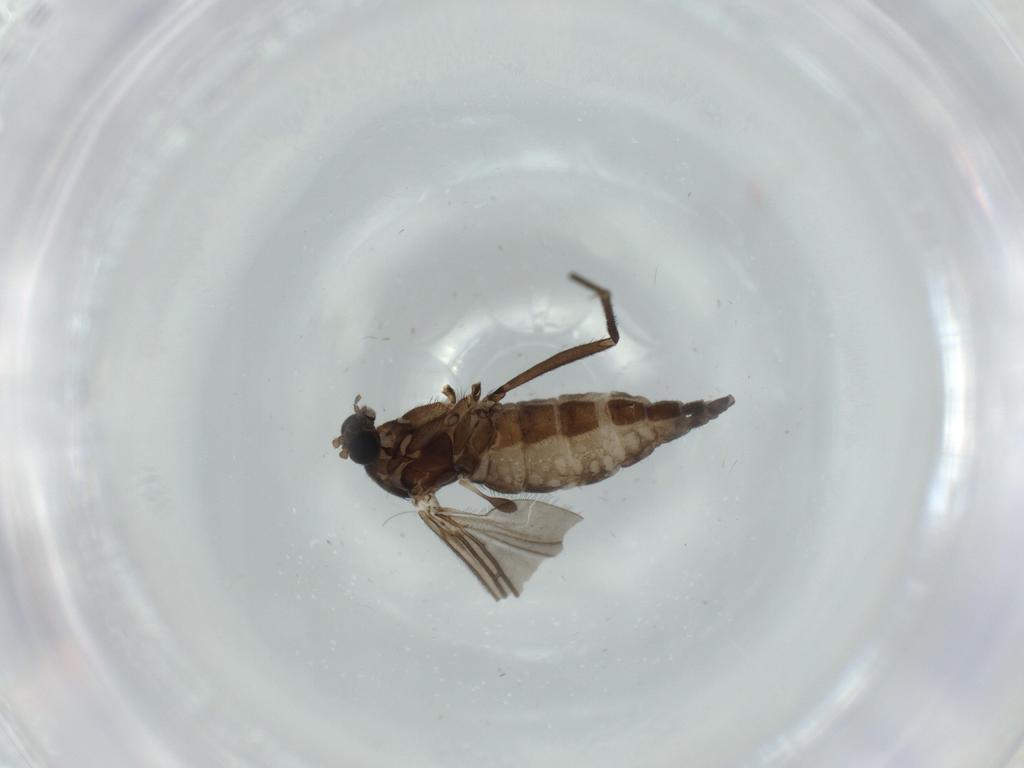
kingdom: Animalia
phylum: Arthropoda
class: Insecta
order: Diptera
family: Sciaridae
